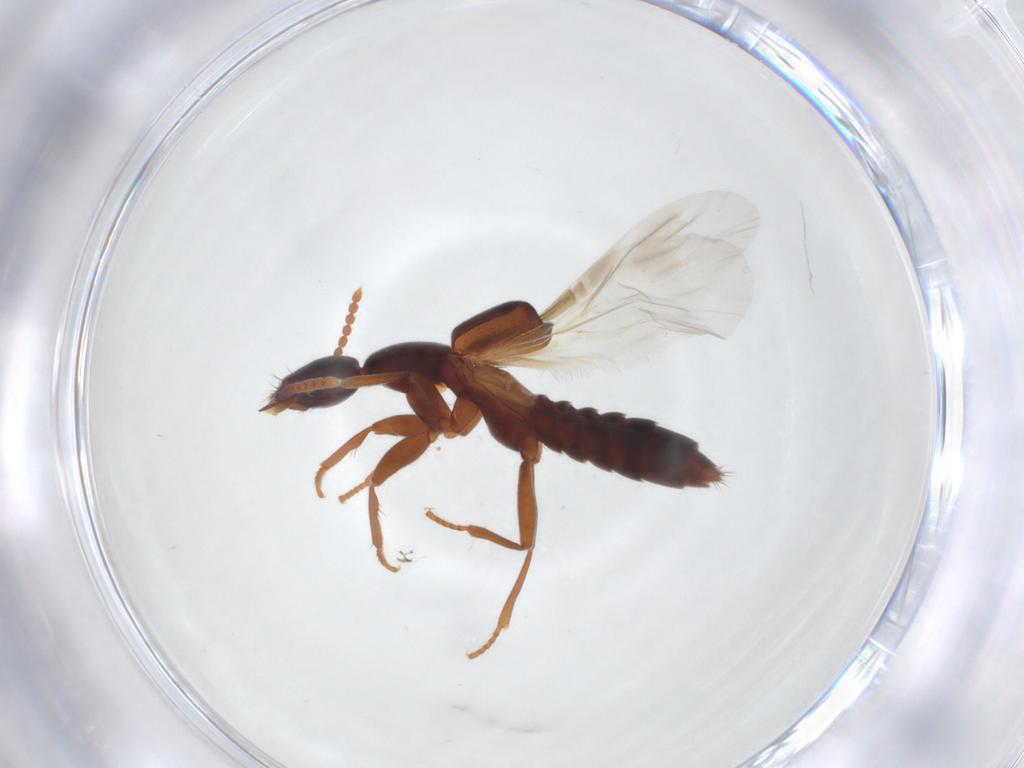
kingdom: Animalia
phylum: Arthropoda
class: Insecta
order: Coleoptera
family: Staphylinidae
